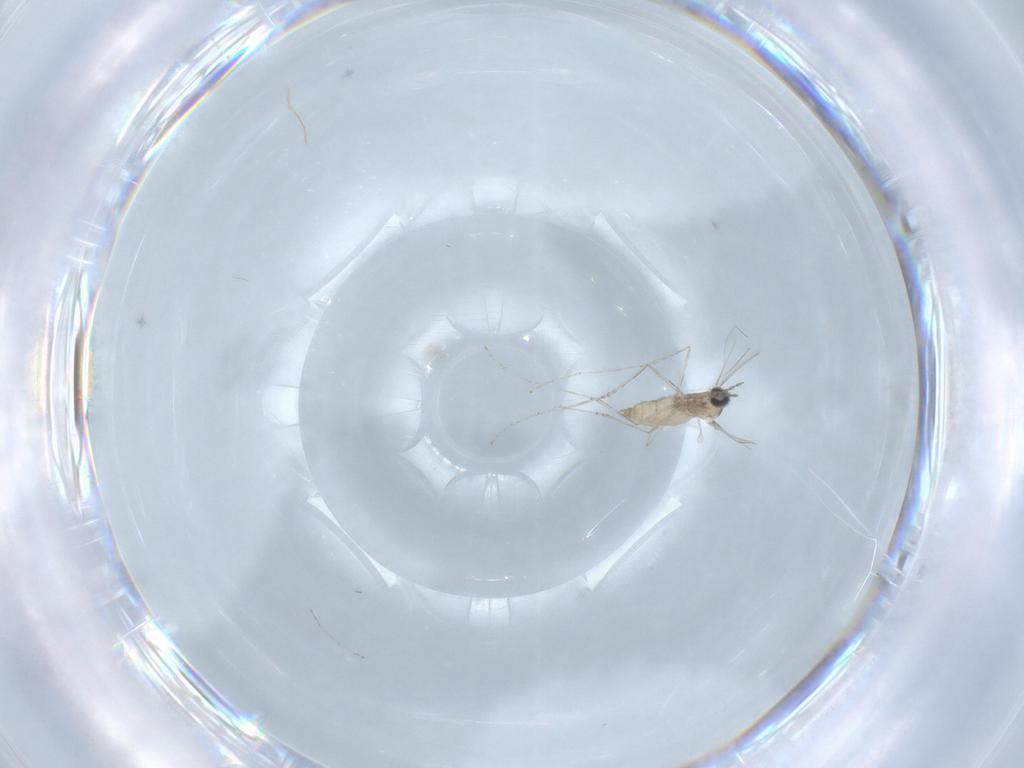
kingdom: Animalia
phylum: Arthropoda
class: Insecta
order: Diptera
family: Cecidomyiidae
